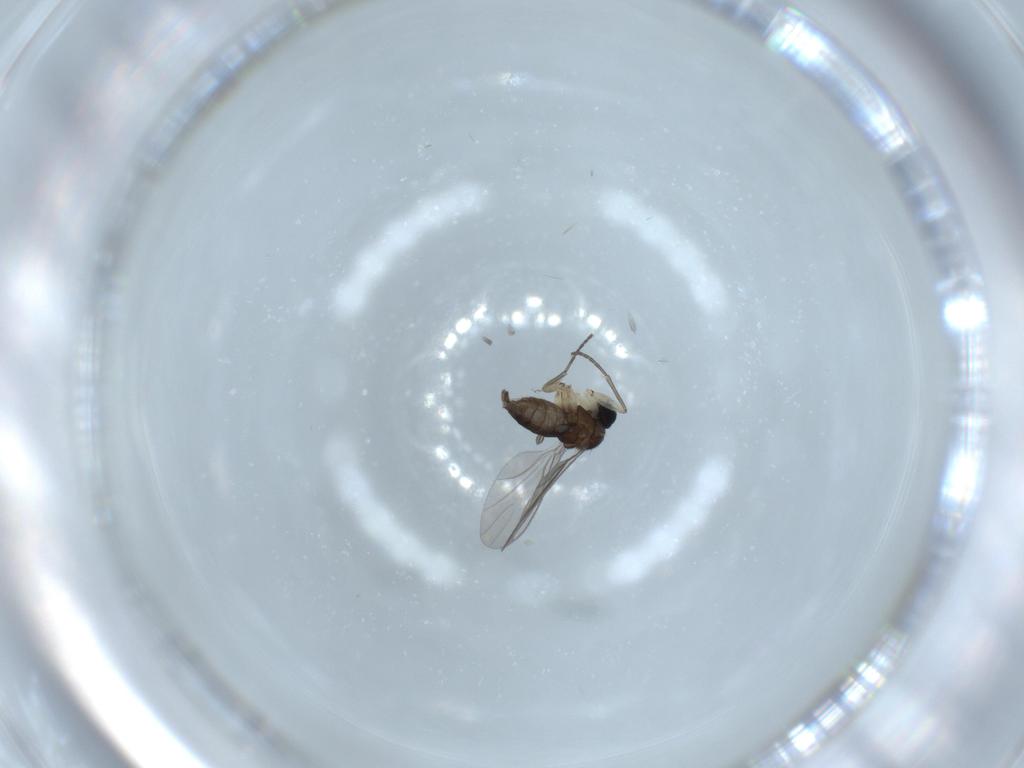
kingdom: Animalia
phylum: Arthropoda
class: Insecta
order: Diptera
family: Sciaridae
